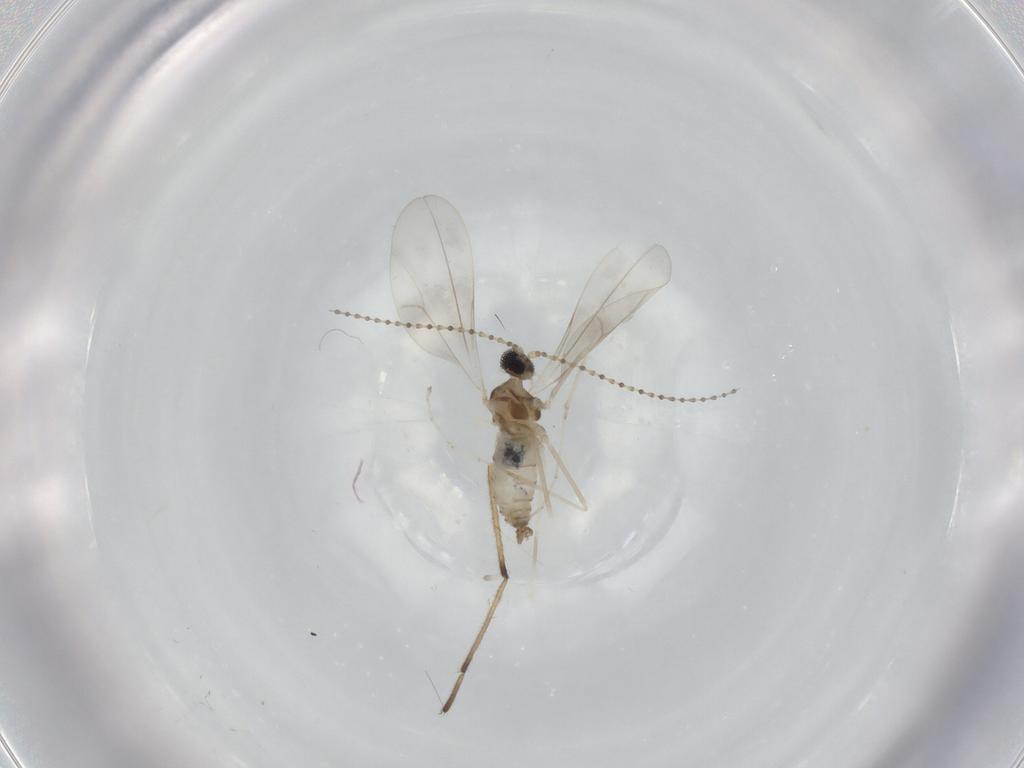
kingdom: Animalia
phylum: Arthropoda
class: Insecta
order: Diptera
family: Chironomidae
